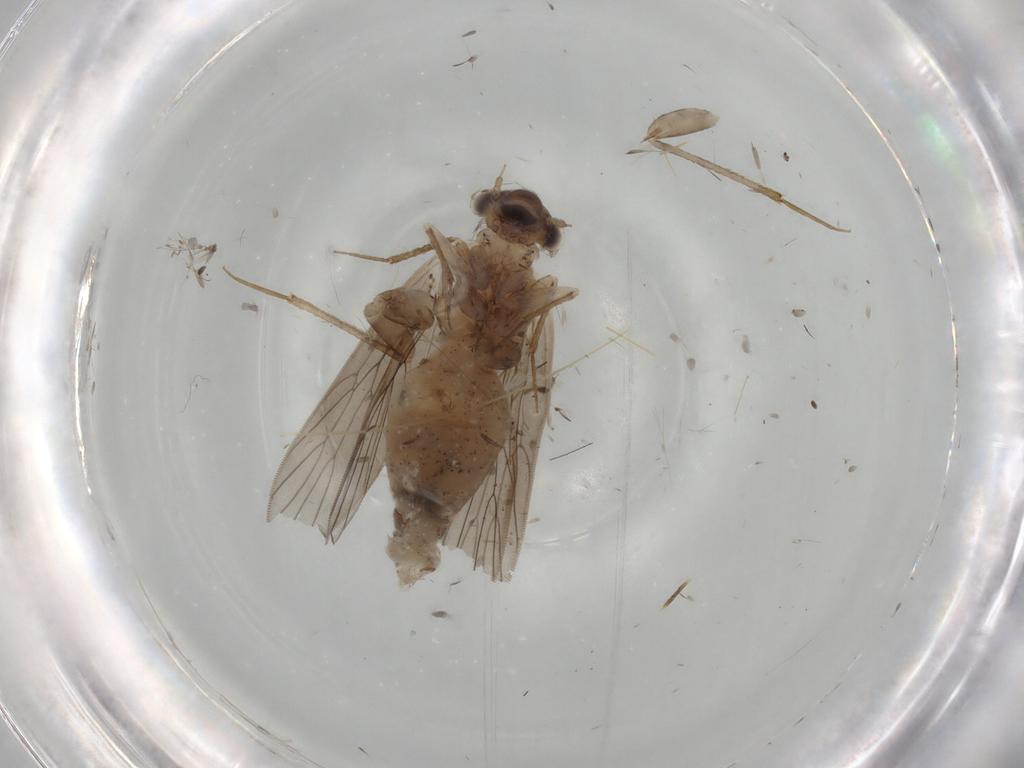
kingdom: Animalia
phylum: Arthropoda
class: Insecta
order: Psocodea
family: Lepidopsocidae
